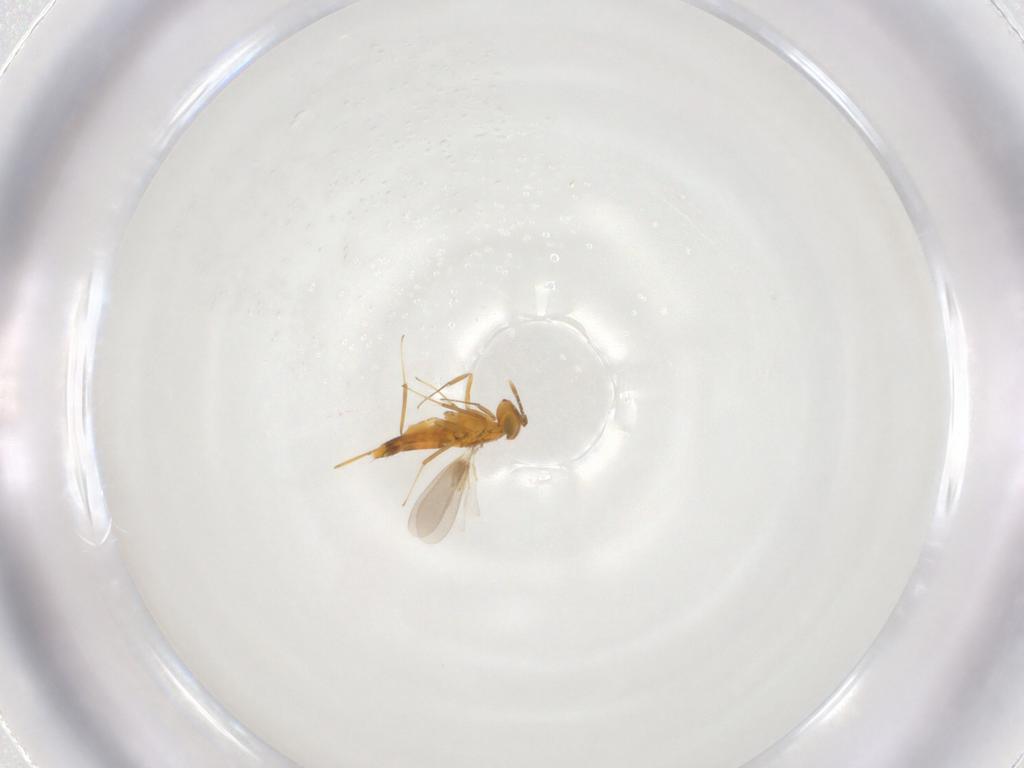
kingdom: Animalia
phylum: Arthropoda
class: Insecta
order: Hymenoptera
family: Aphelinidae
